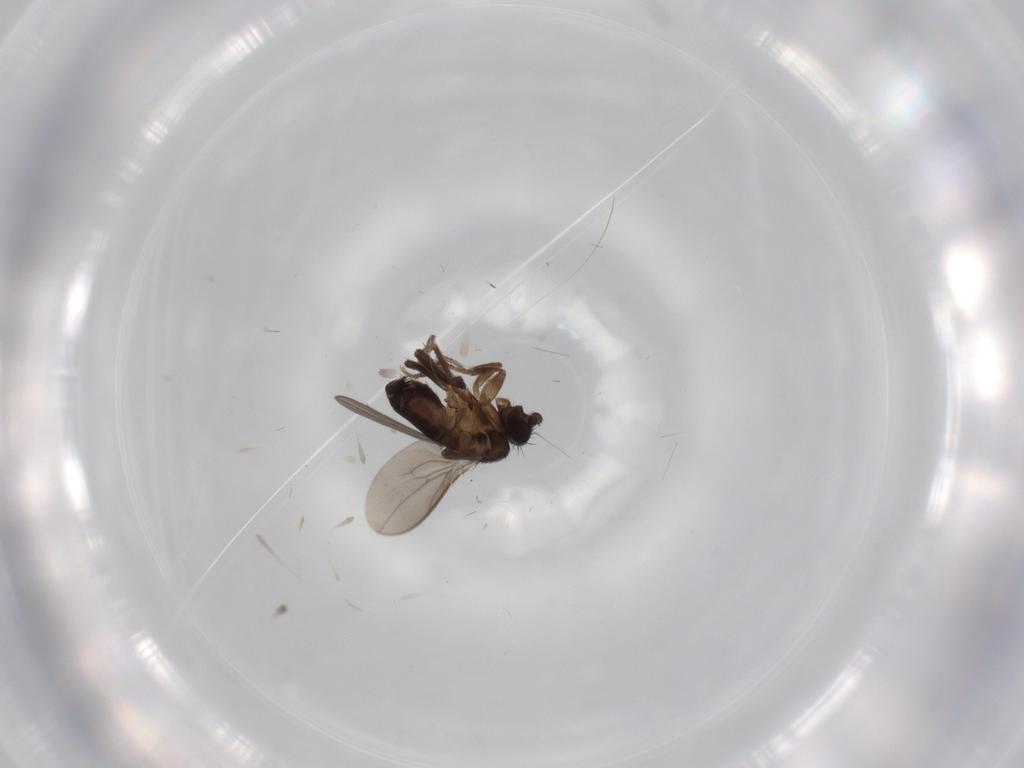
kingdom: Animalia
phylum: Arthropoda
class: Insecta
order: Diptera
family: Sphaeroceridae
